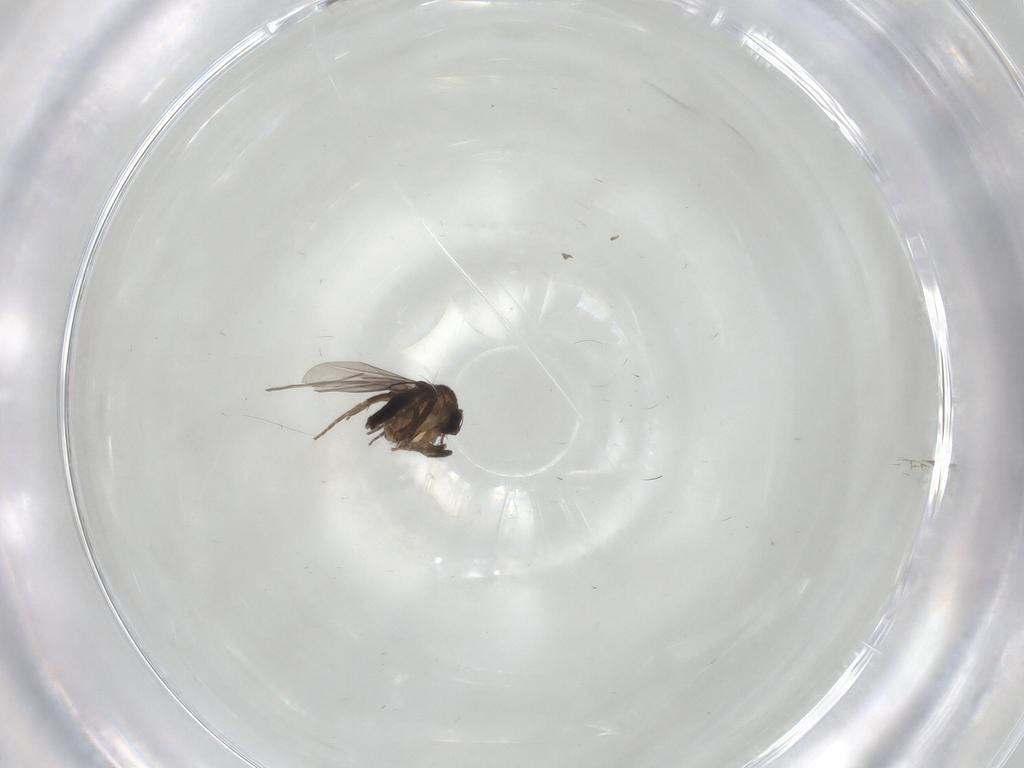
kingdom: Animalia
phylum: Arthropoda
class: Insecta
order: Diptera
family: Phoridae
